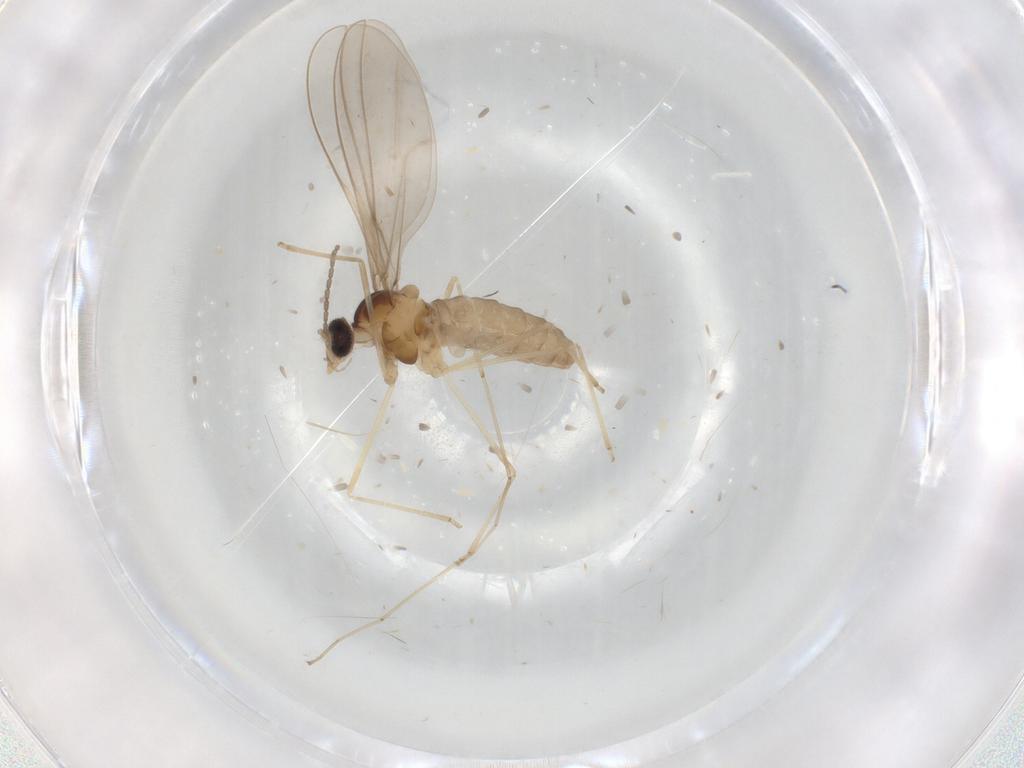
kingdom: Animalia
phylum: Arthropoda
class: Insecta
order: Diptera
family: Cecidomyiidae
